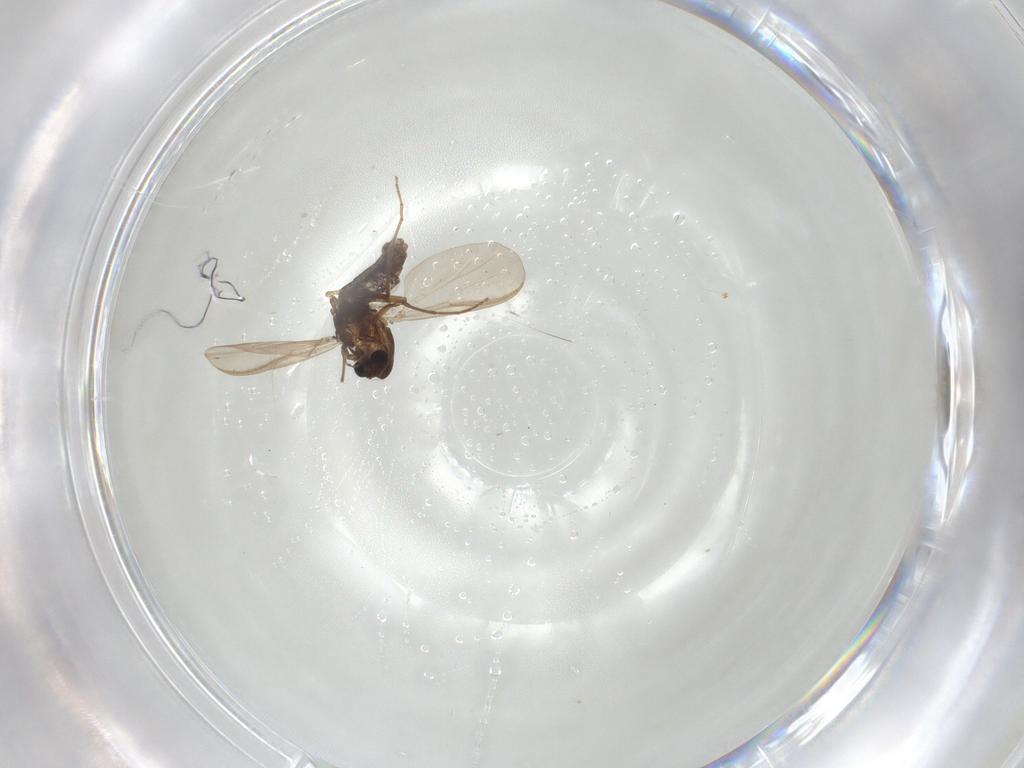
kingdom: Animalia
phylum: Arthropoda
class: Insecta
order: Diptera
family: Chironomidae
